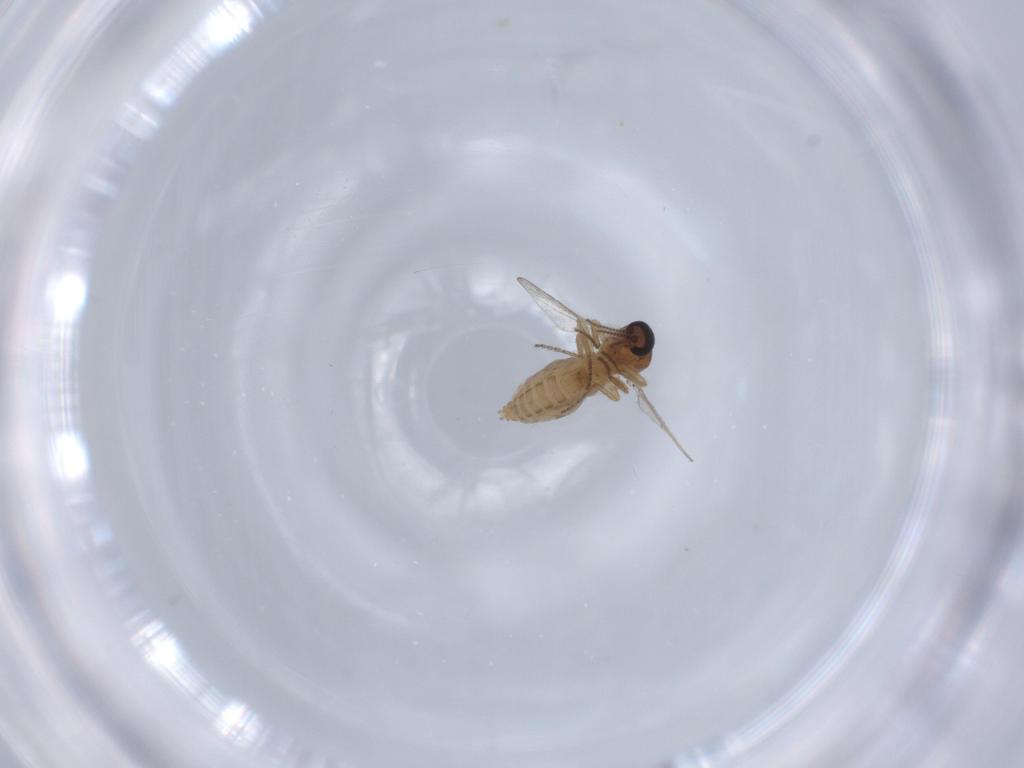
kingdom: Animalia
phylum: Arthropoda
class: Insecta
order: Diptera
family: Ceratopogonidae
